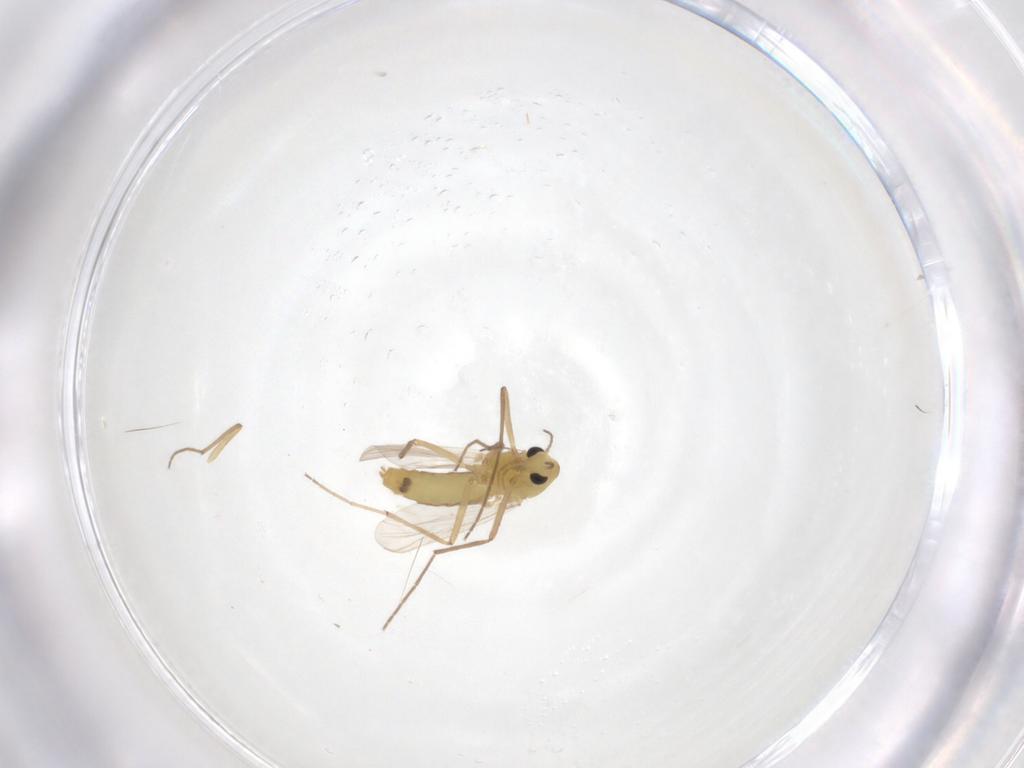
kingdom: Animalia
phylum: Arthropoda
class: Insecta
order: Diptera
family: Chironomidae
